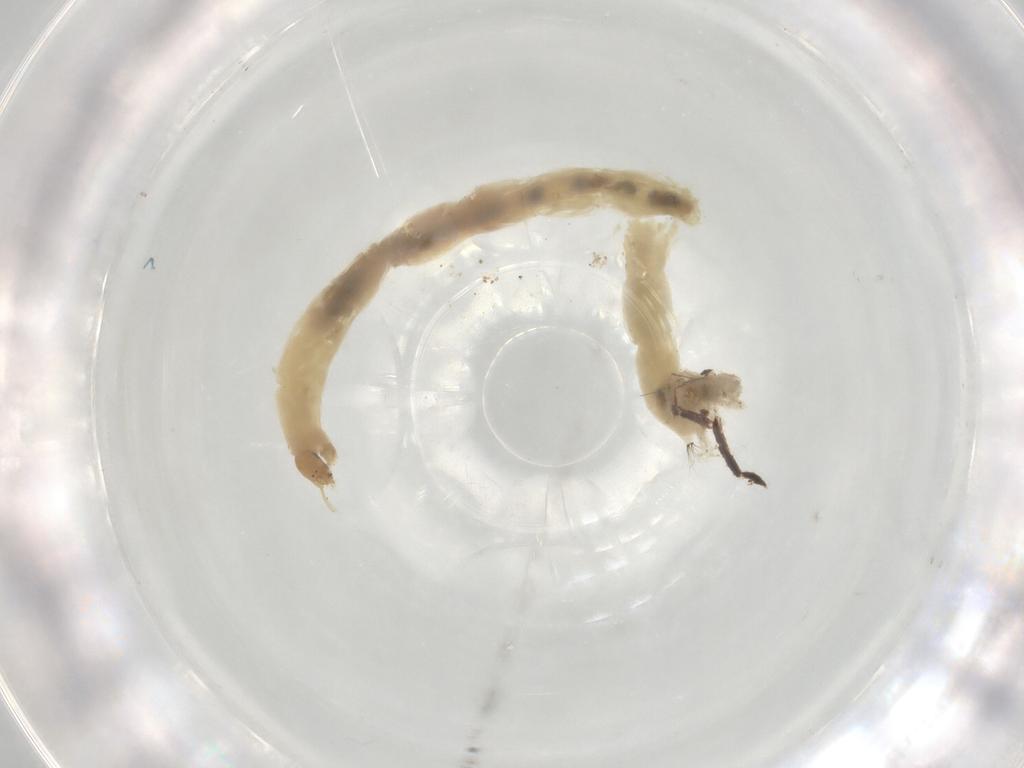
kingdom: Animalia
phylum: Arthropoda
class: Insecta
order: Diptera
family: Chironomidae
